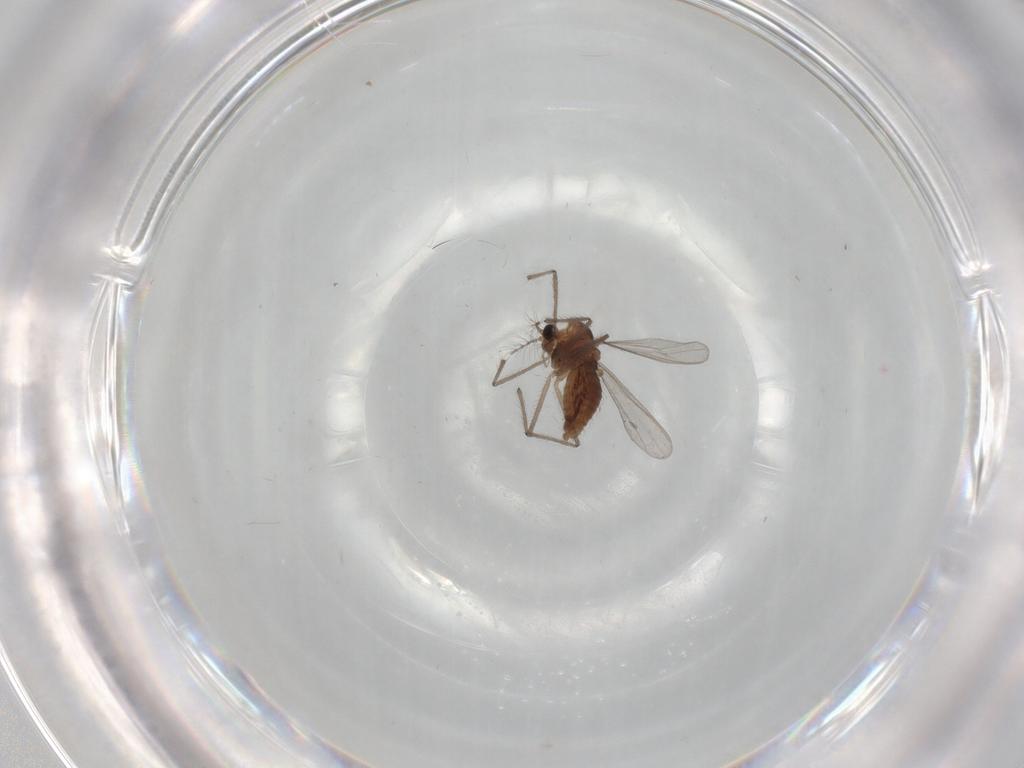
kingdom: Animalia
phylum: Arthropoda
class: Insecta
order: Diptera
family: Chironomidae
